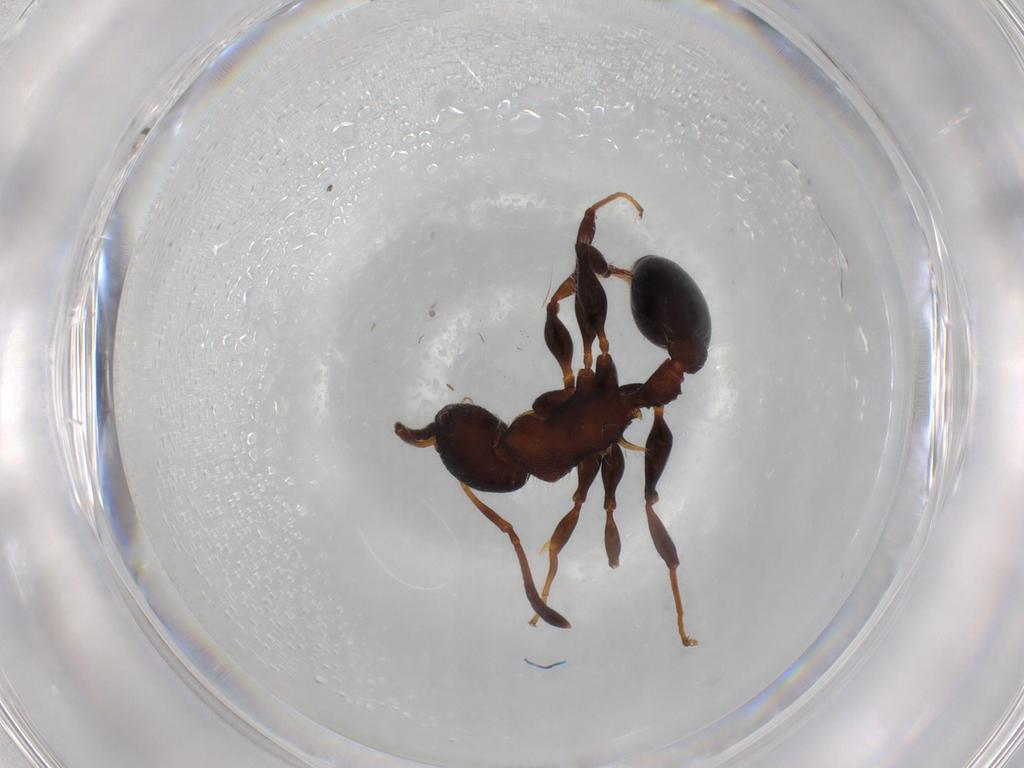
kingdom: Animalia
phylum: Arthropoda
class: Insecta
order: Hymenoptera
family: Formicidae
